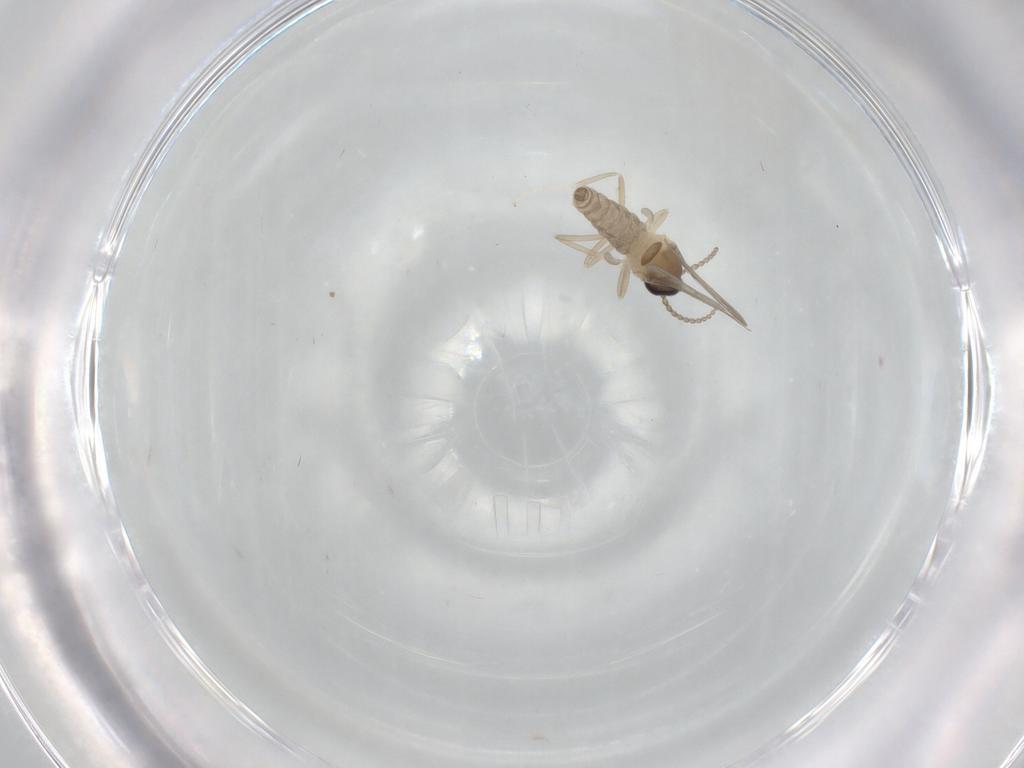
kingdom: Animalia
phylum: Arthropoda
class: Insecta
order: Diptera
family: Cecidomyiidae
